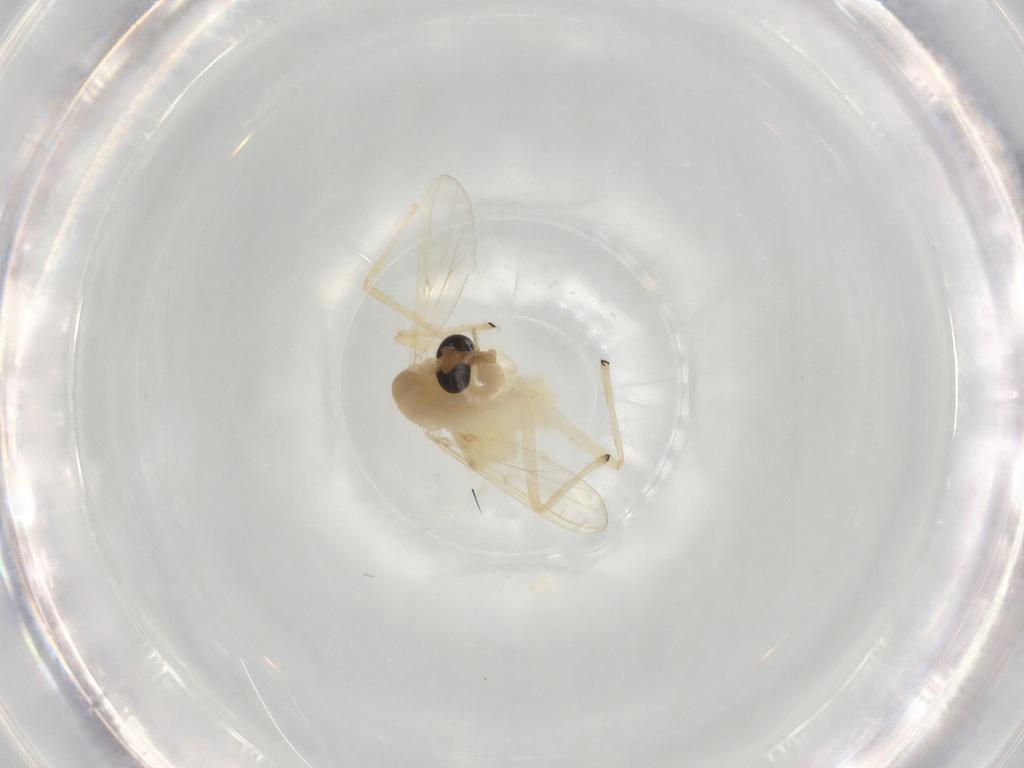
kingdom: Animalia
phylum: Arthropoda
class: Insecta
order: Diptera
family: Chironomidae
